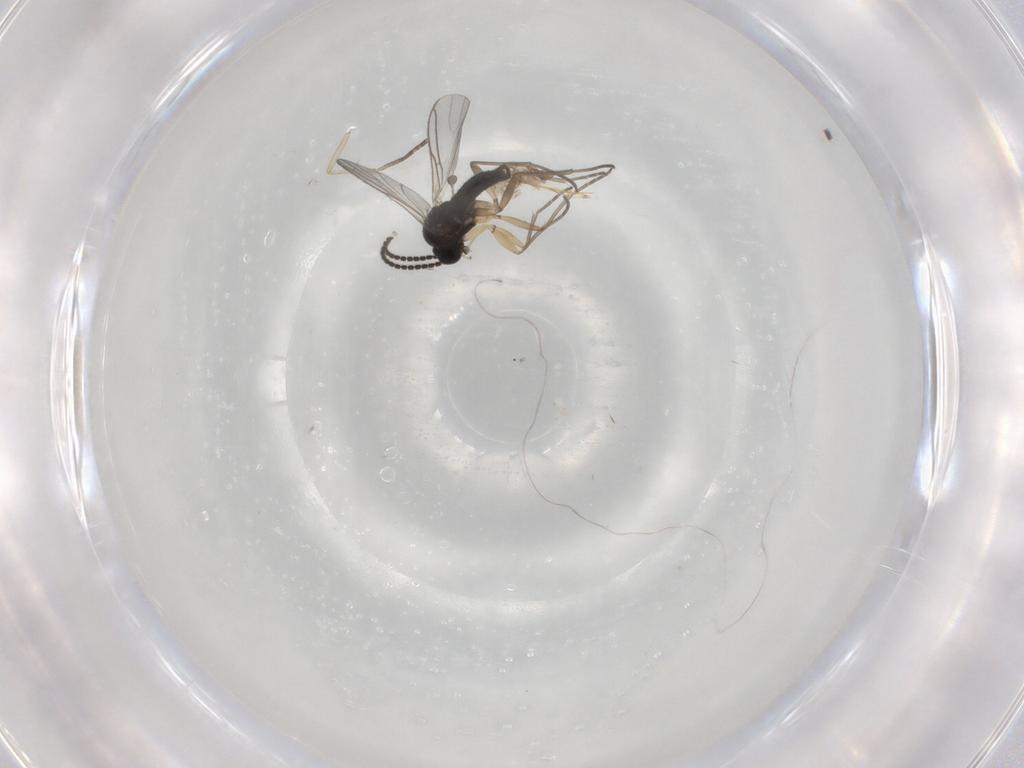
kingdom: Animalia
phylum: Arthropoda
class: Insecta
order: Diptera
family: Sciaridae
